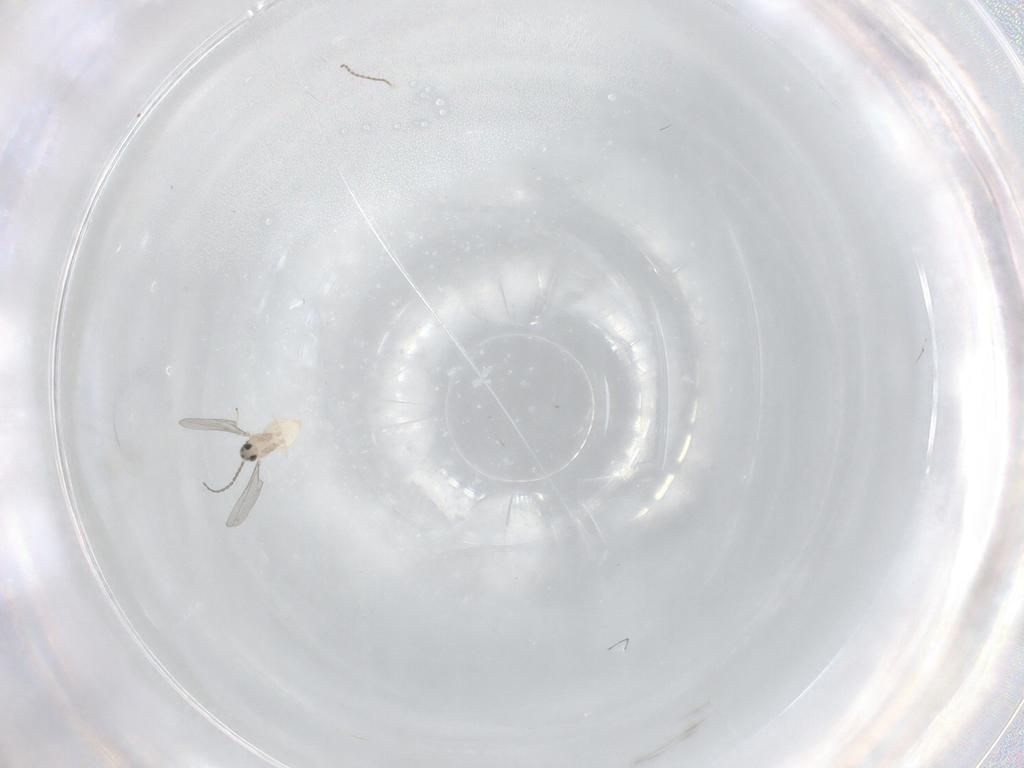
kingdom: Animalia
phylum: Arthropoda
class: Insecta
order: Diptera
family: Cecidomyiidae
